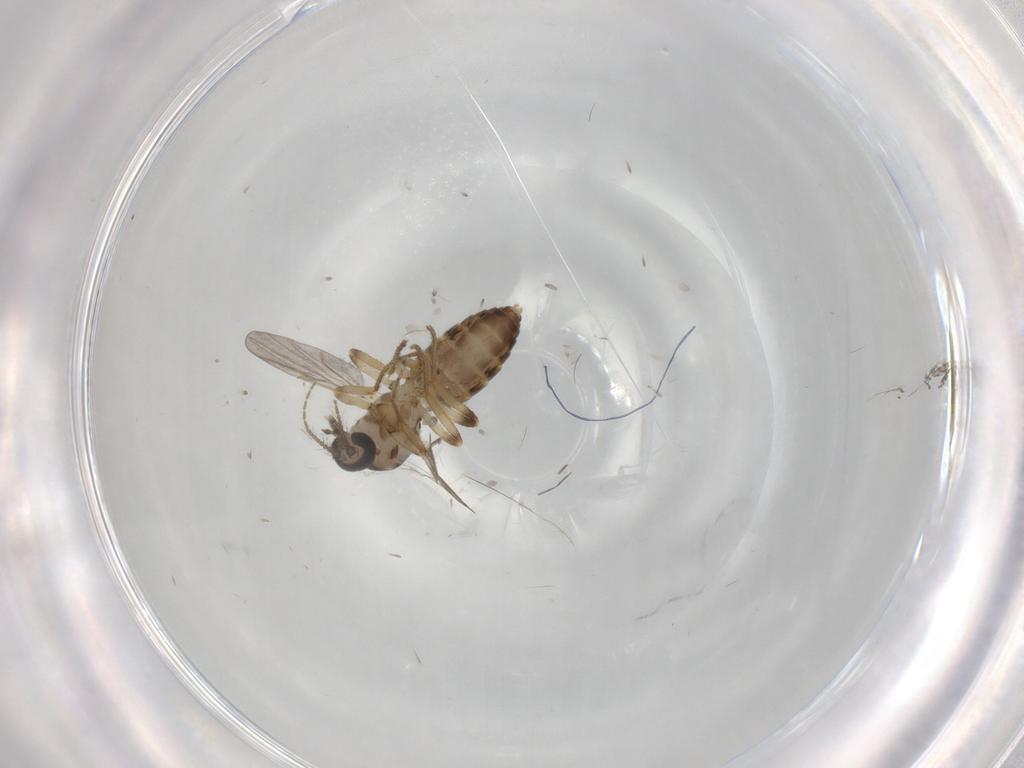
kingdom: Animalia
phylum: Arthropoda
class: Insecta
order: Diptera
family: Ceratopogonidae
